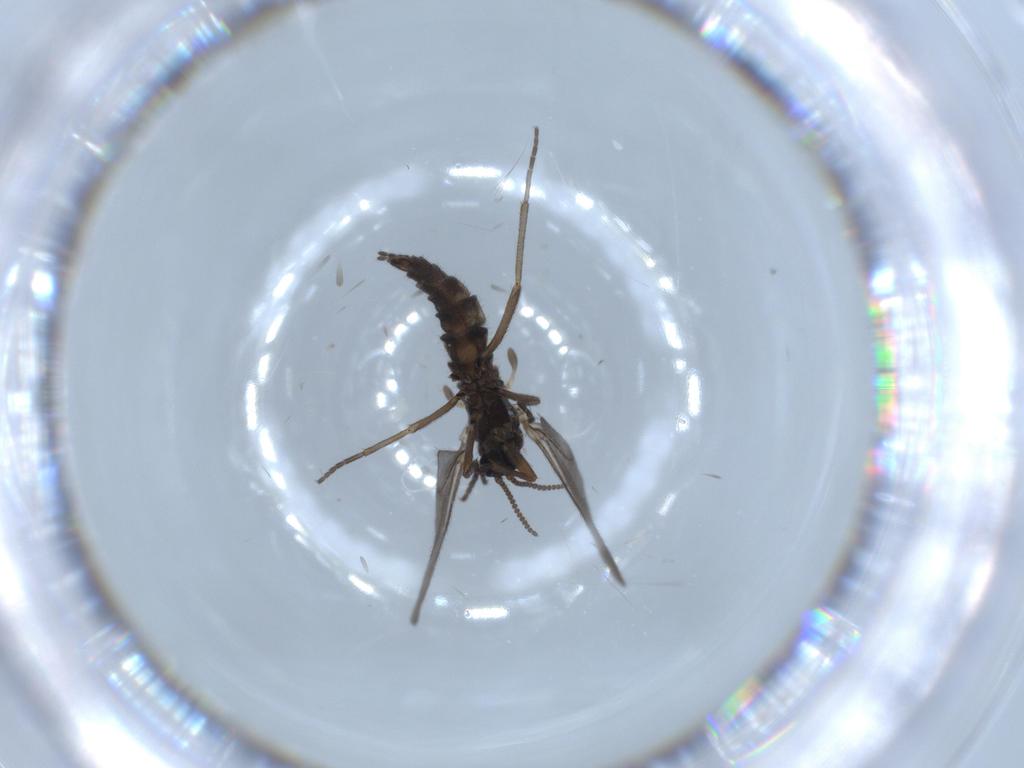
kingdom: Animalia
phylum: Arthropoda
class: Insecta
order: Diptera
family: Sciaridae
